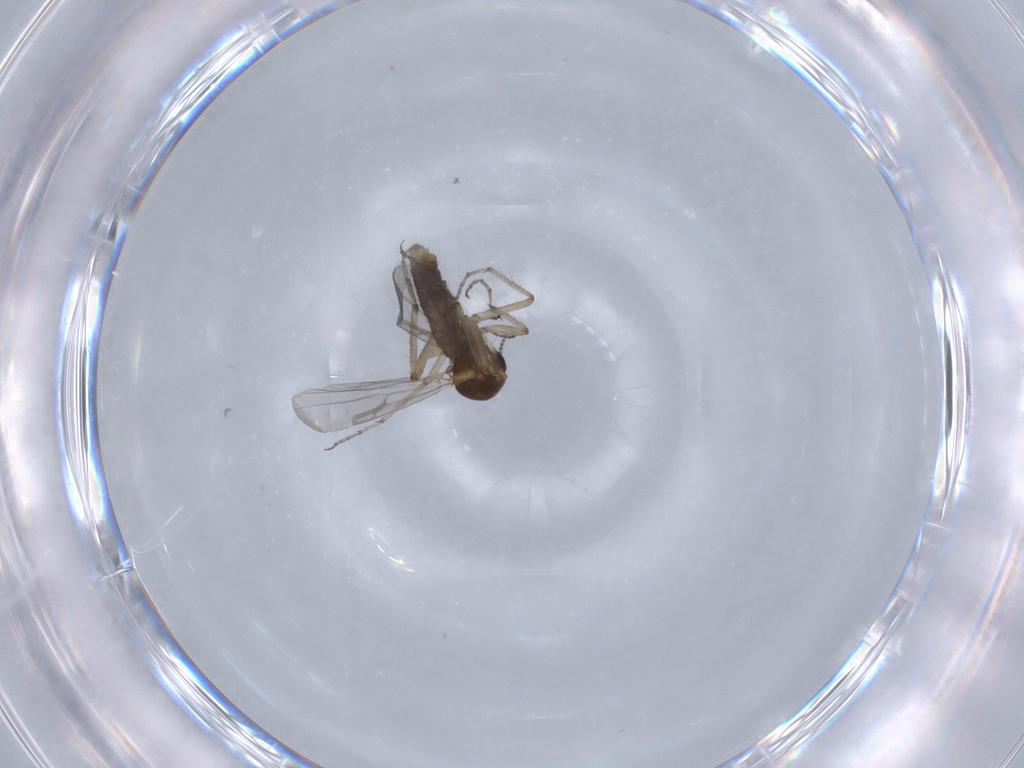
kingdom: Animalia
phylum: Arthropoda
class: Insecta
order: Diptera
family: Ceratopogonidae
